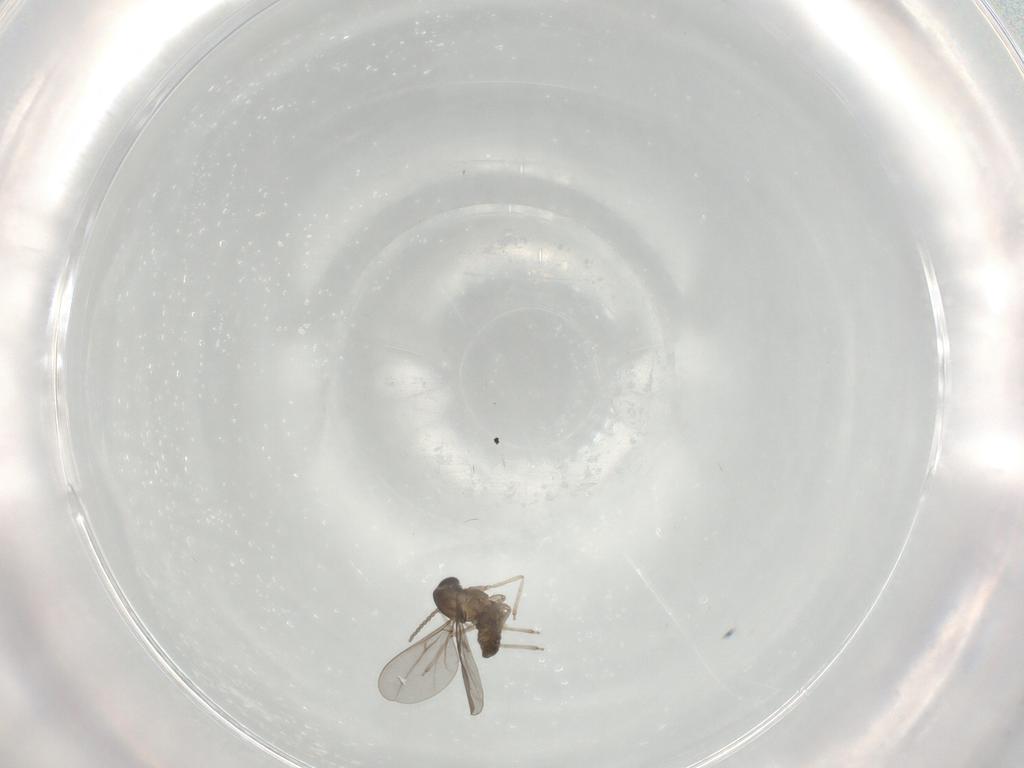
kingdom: Animalia
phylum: Arthropoda
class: Insecta
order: Diptera
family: Cecidomyiidae
